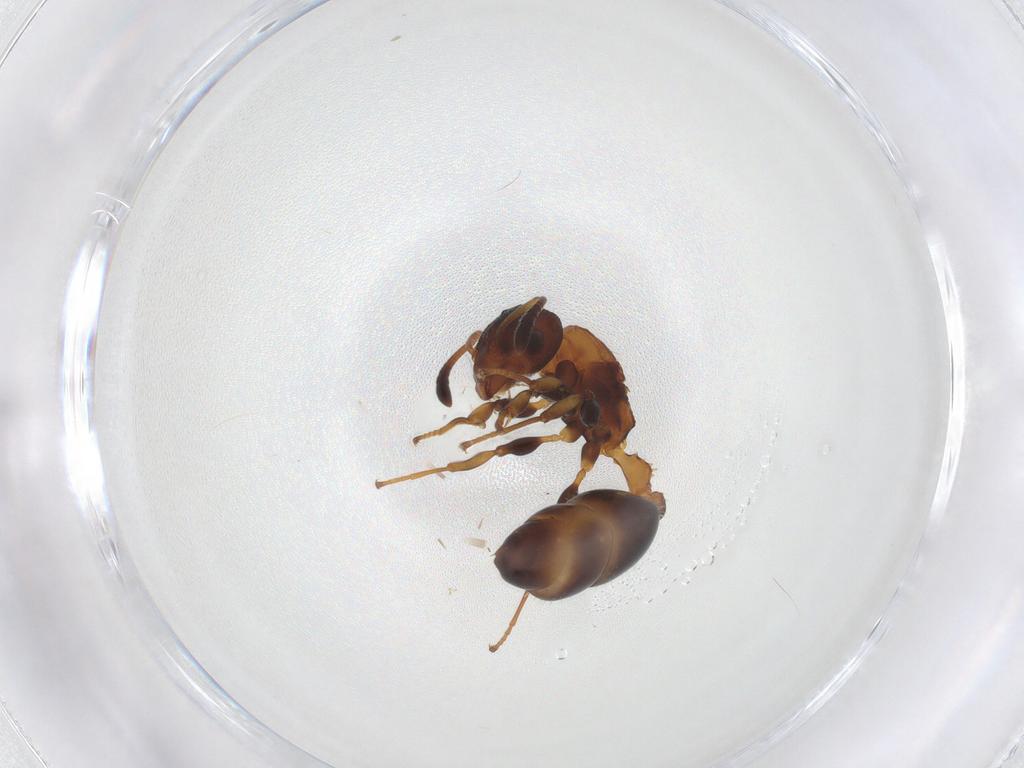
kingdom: Animalia
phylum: Arthropoda
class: Insecta
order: Hymenoptera
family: Formicidae
